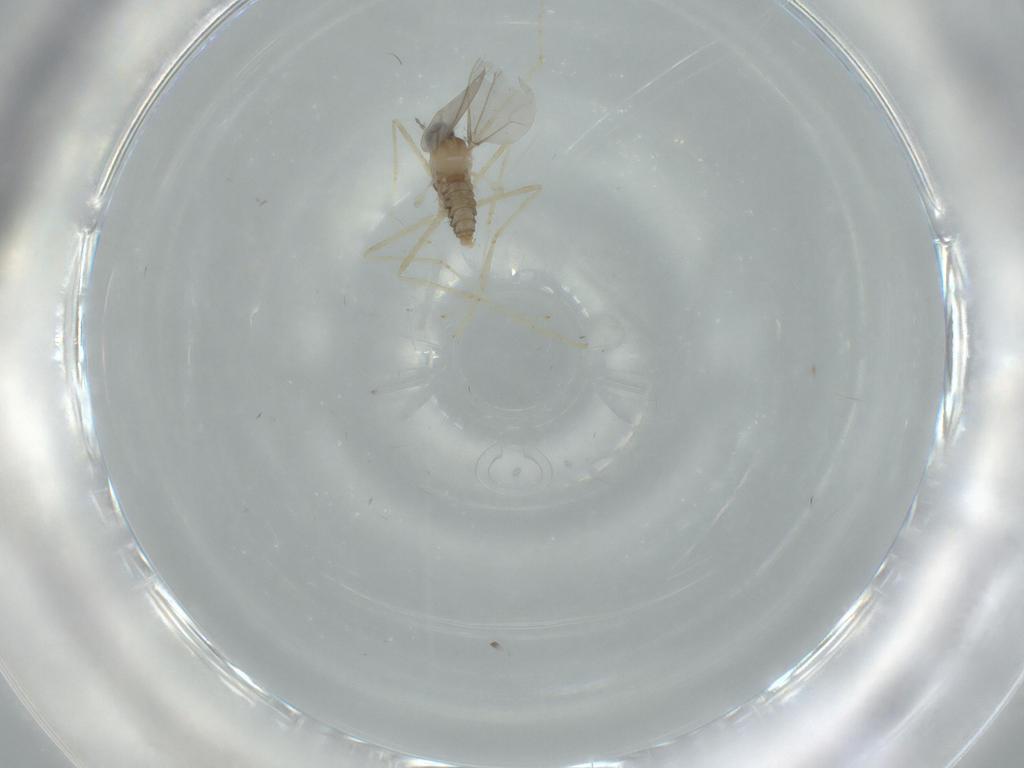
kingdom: Animalia
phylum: Arthropoda
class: Insecta
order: Diptera
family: Cecidomyiidae
